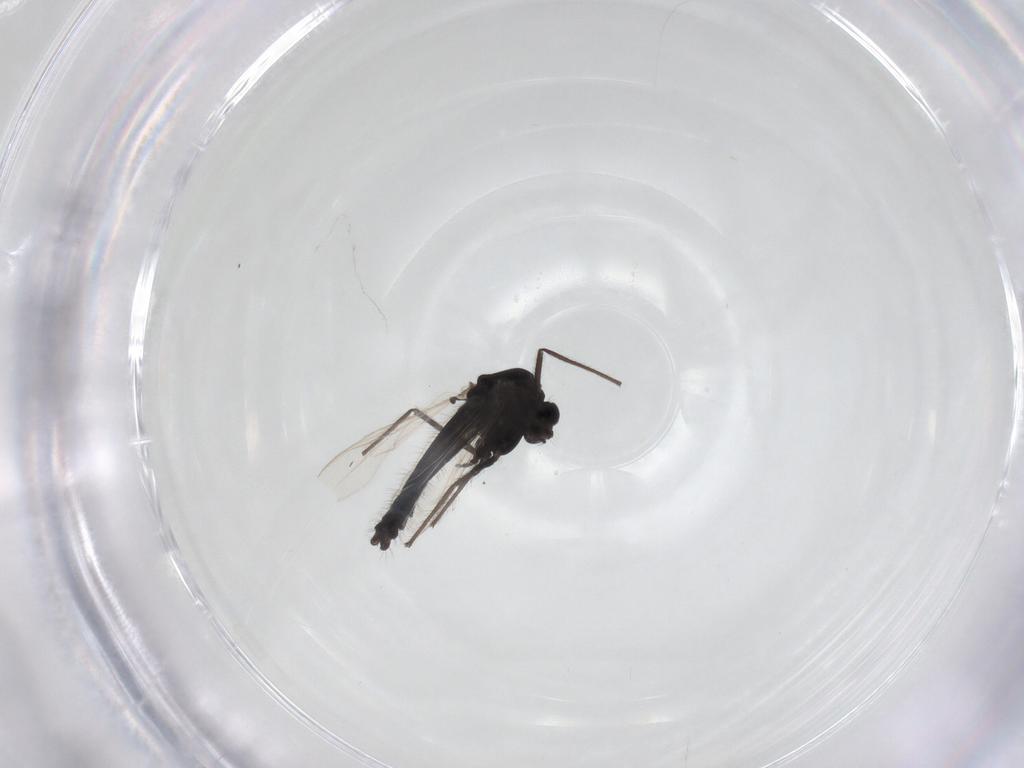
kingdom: Animalia
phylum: Arthropoda
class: Insecta
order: Diptera
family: Chironomidae
